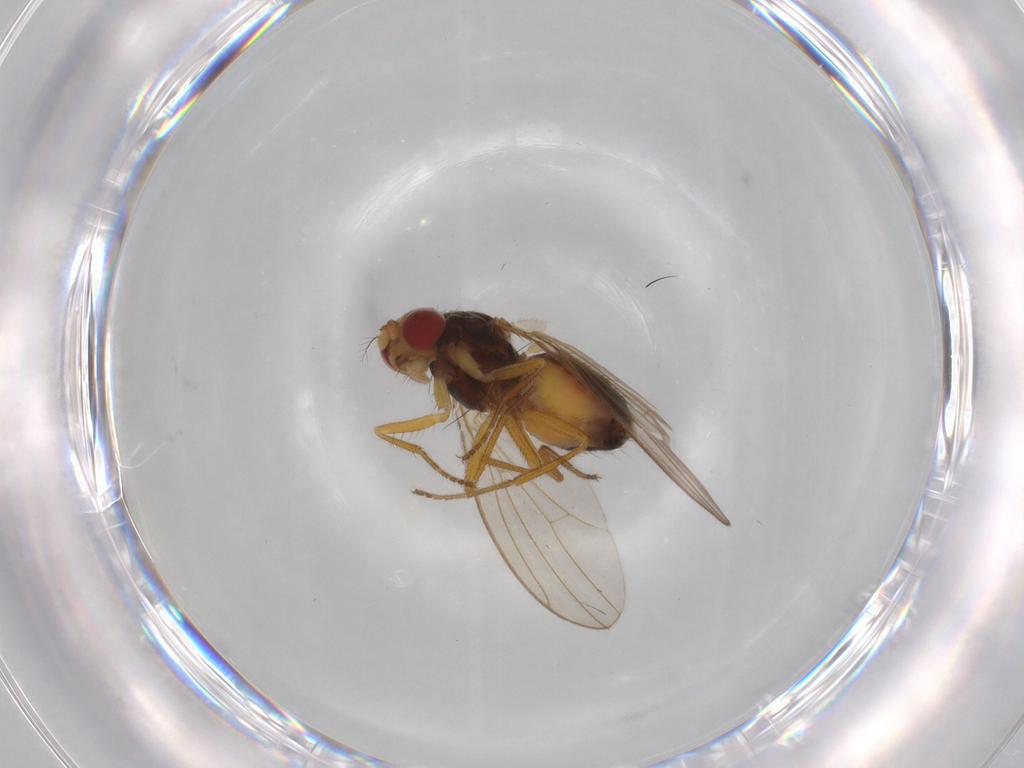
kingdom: Animalia
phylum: Arthropoda
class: Insecta
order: Diptera
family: Drosophilidae
